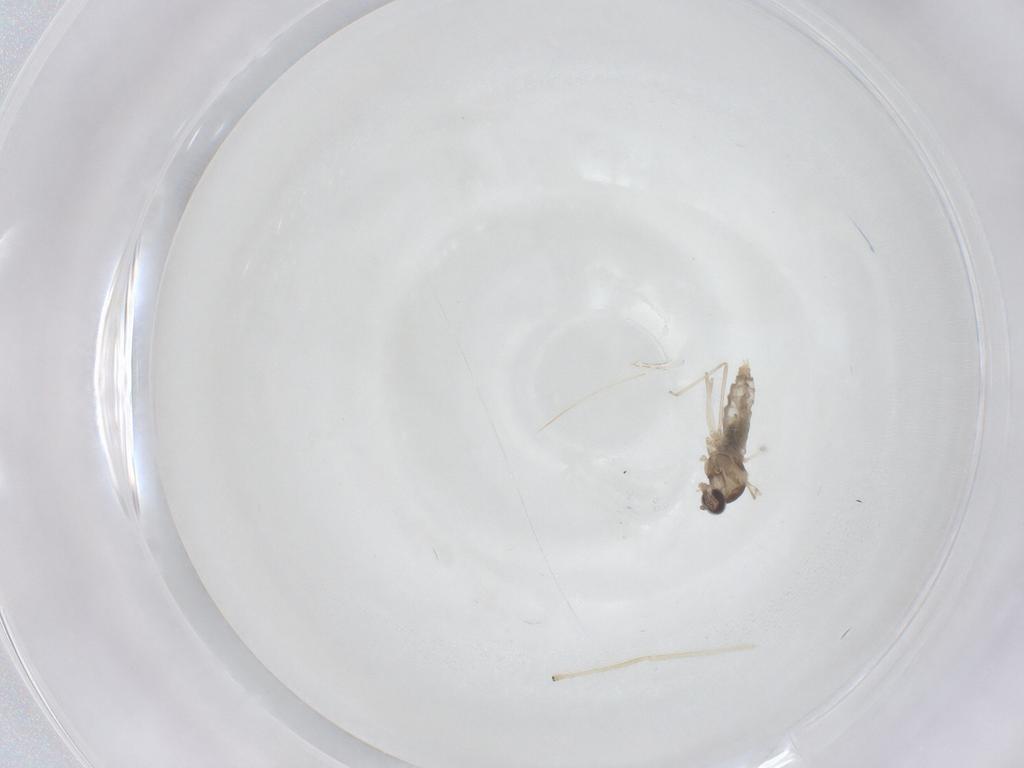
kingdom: Animalia
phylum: Arthropoda
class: Insecta
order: Diptera
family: Cecidomyiidae
